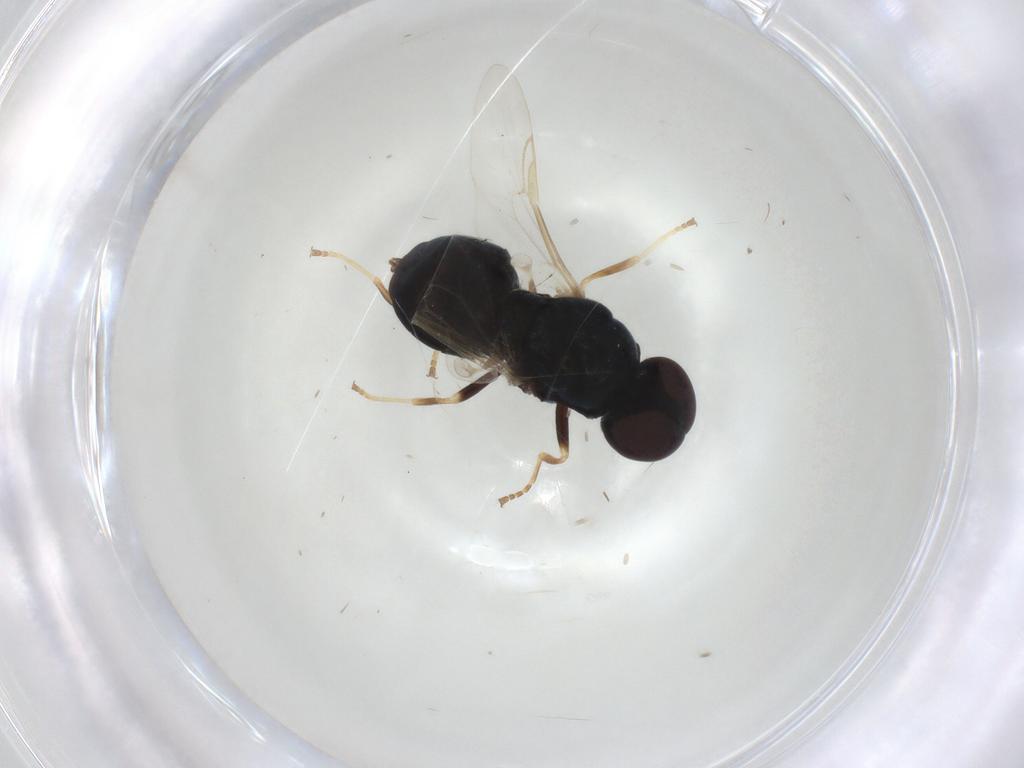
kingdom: Animalia
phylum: Arthropoda
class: Insecta
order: Diptera
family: Stratiomyidae
